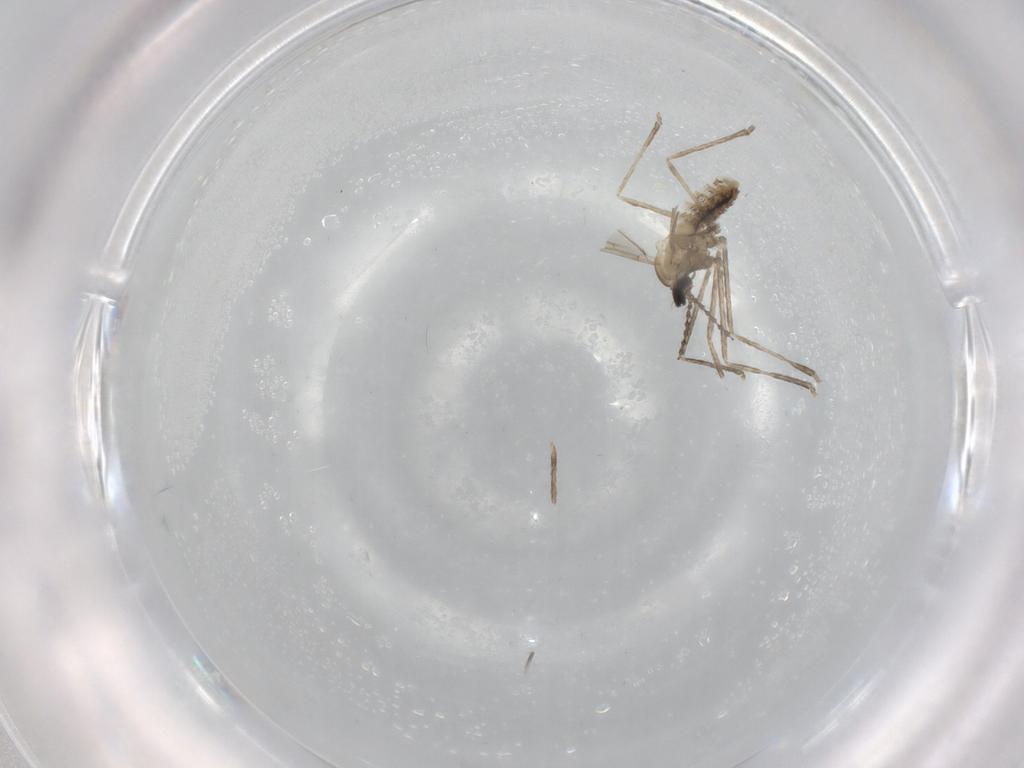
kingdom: Animalia
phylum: Arthropoda
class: Insecta
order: Diptera
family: Cecidomyiidae
